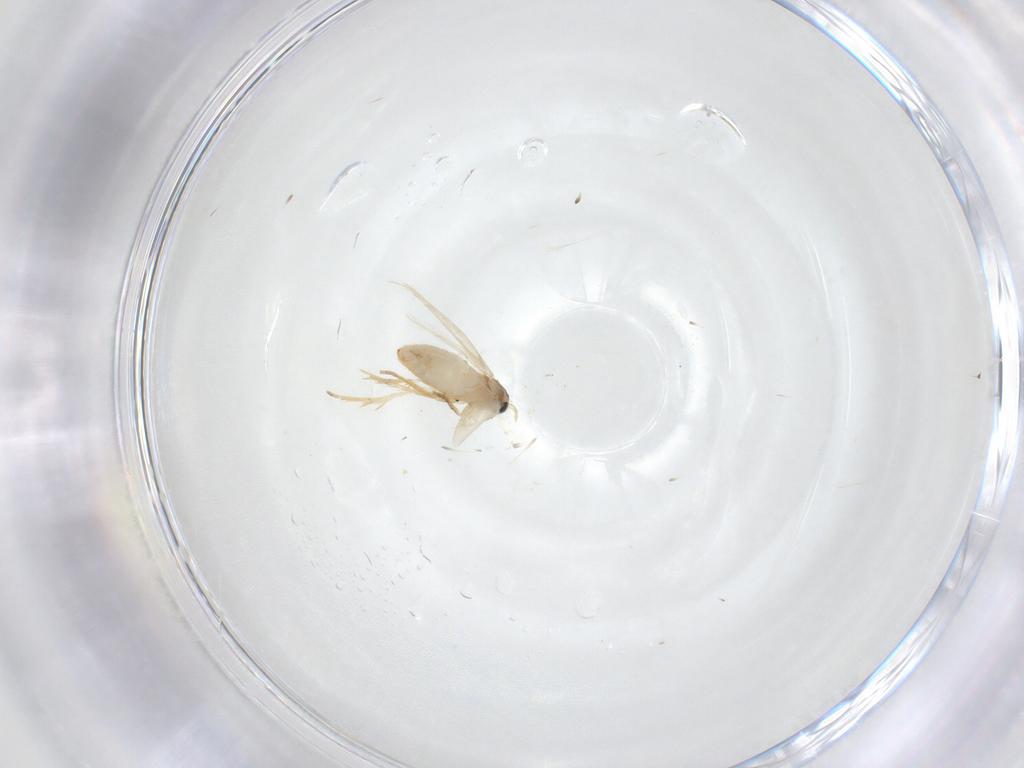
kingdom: Animalia
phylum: Arthropoda
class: Insecta
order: Lepidoptera
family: Crambidae
